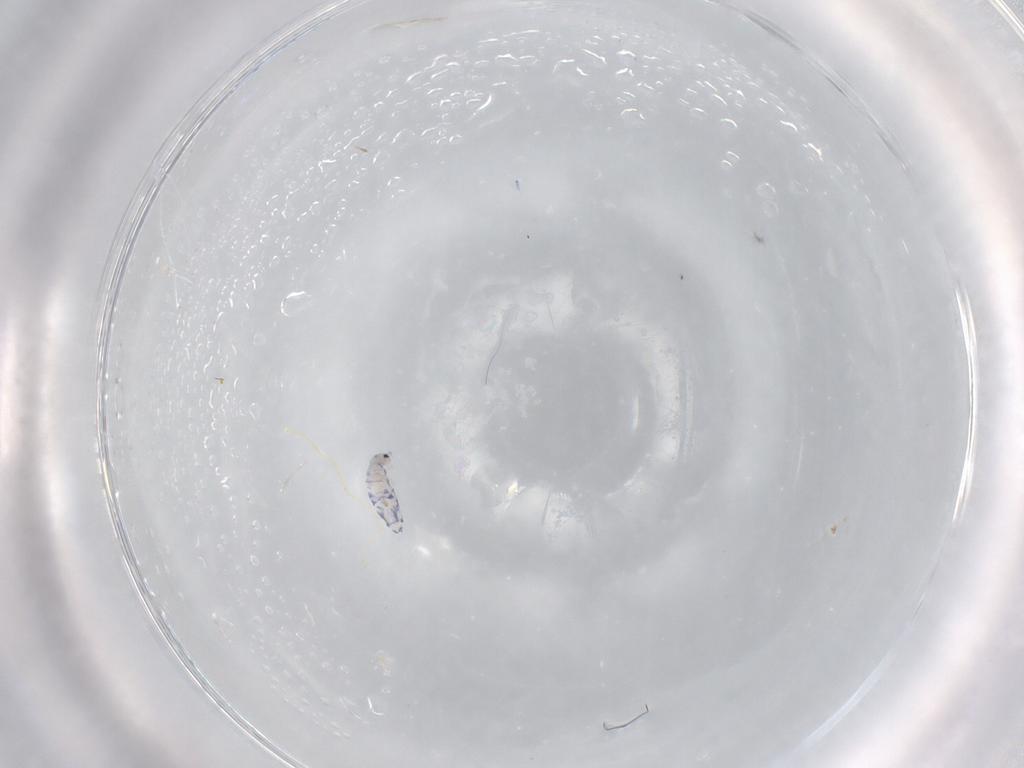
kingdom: Animalia
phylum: Arthropoda
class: Collembola
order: Entomobryomorpha
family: Entomobryidae
